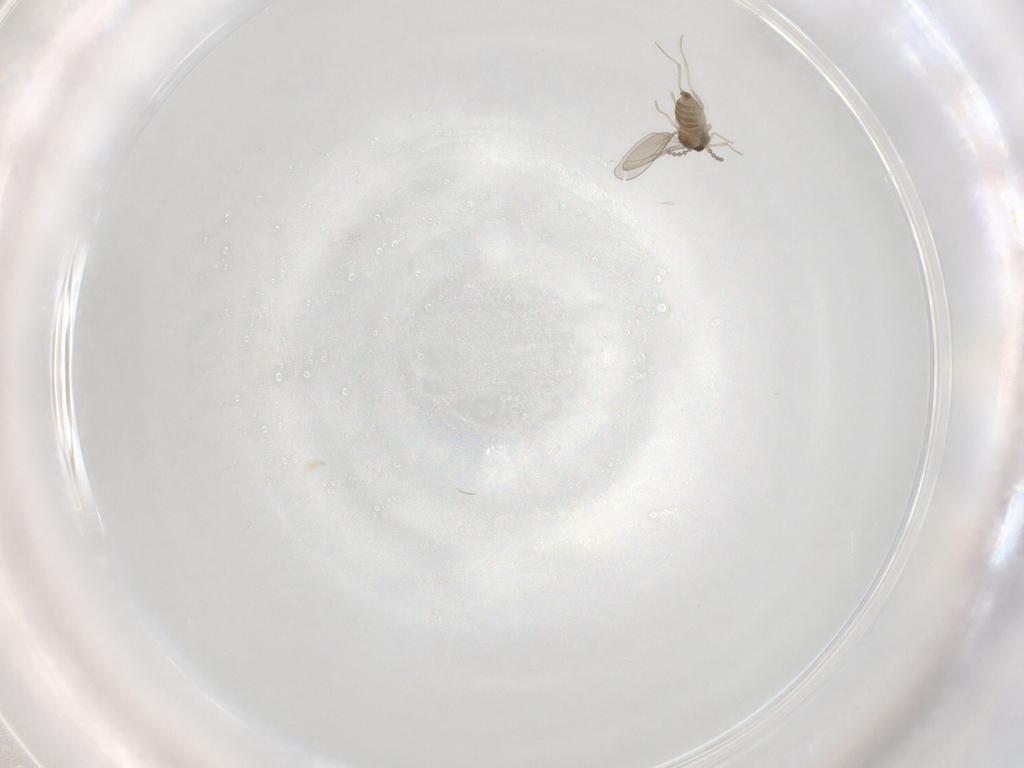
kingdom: Animalia
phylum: Arthropoda
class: Insecta
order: Diptera
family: Cecidomyiidae
